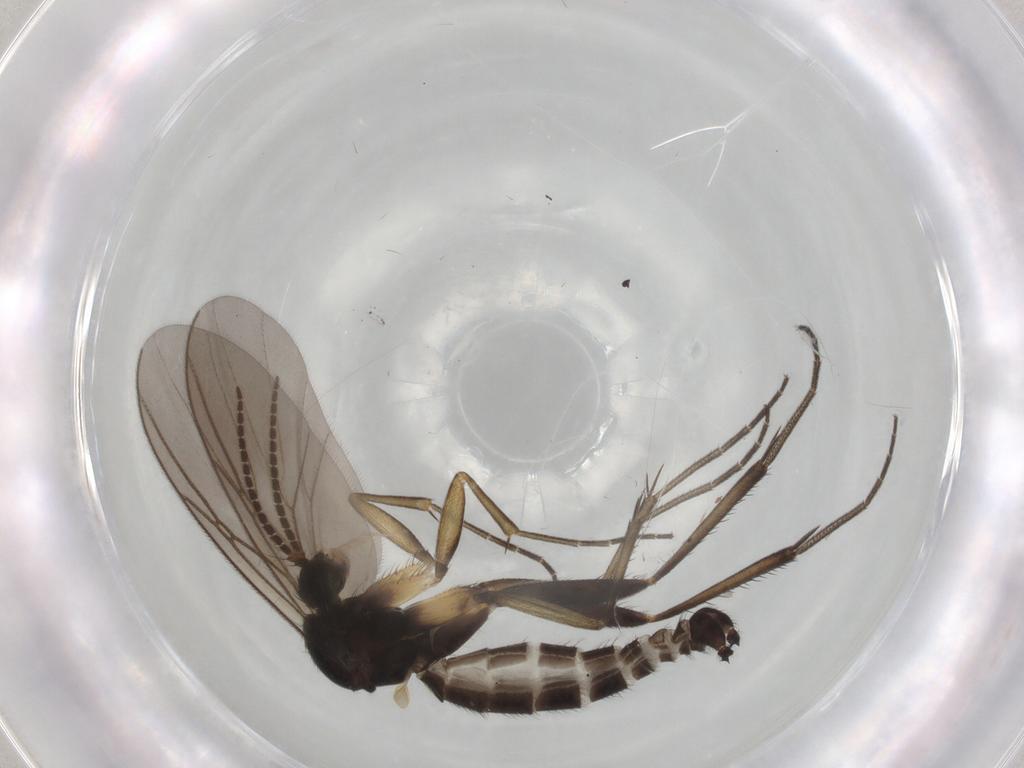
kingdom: Animalia
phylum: Arthropoda
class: Insecta
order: Diptera
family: Mycetophilidae
